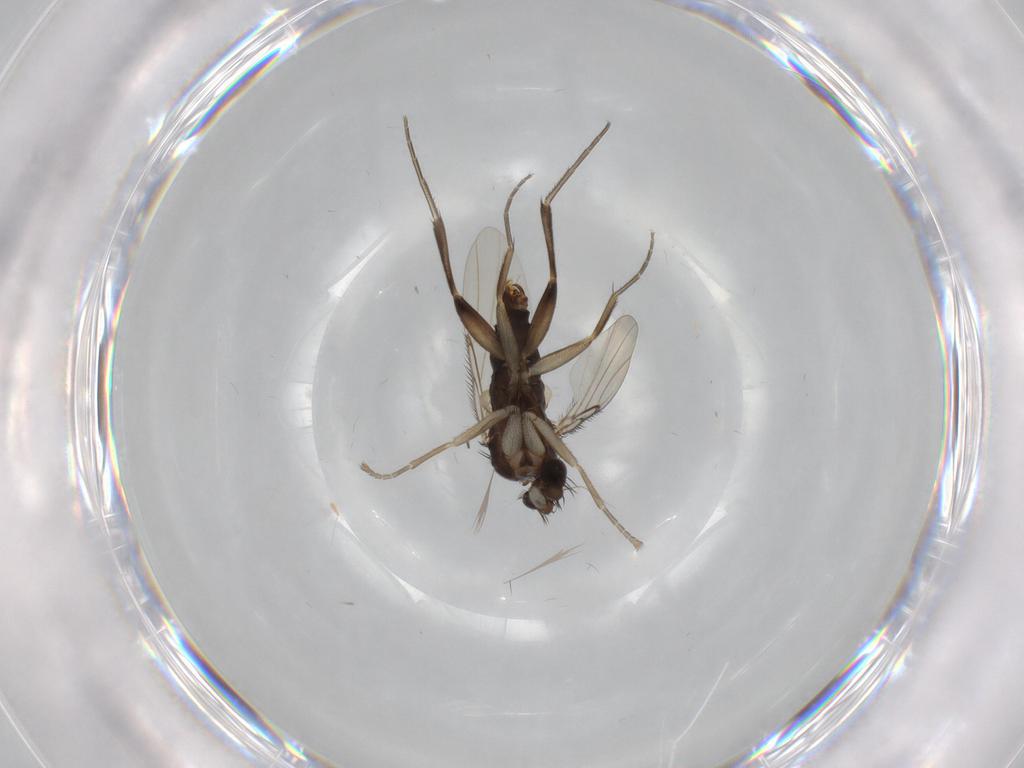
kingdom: Animalia
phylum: Arthropoda
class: Insecta
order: Diptera
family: Phoridae
